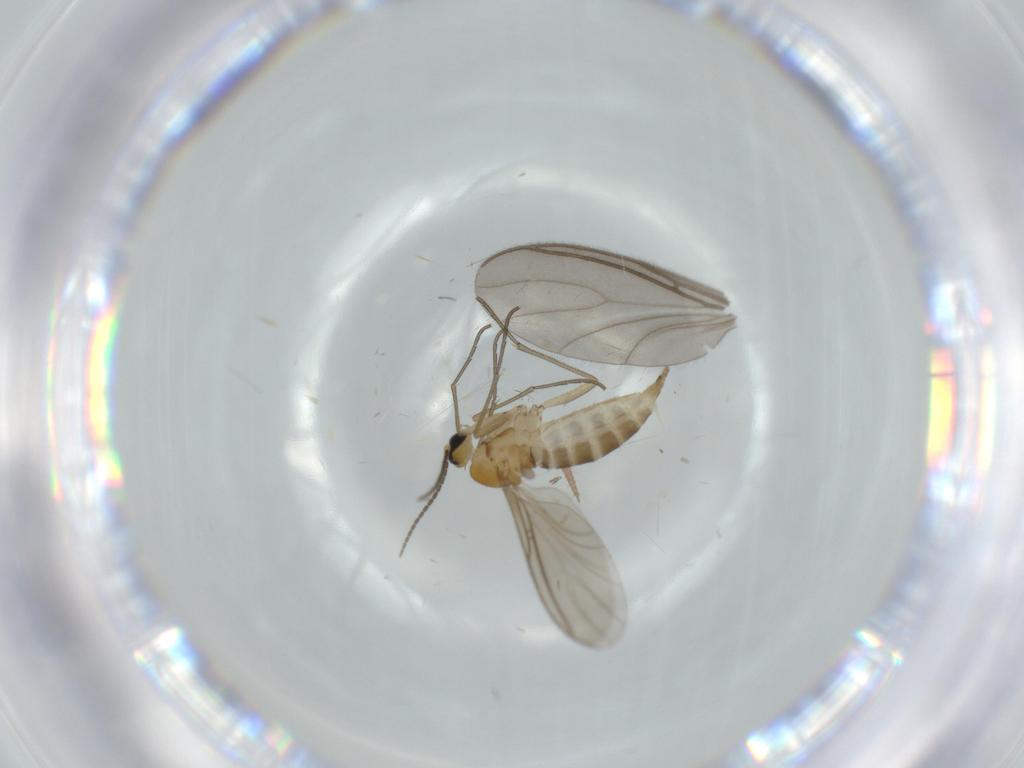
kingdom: Animalia
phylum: Arthropoda
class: Insecta
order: Diptera
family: Sciaridae
